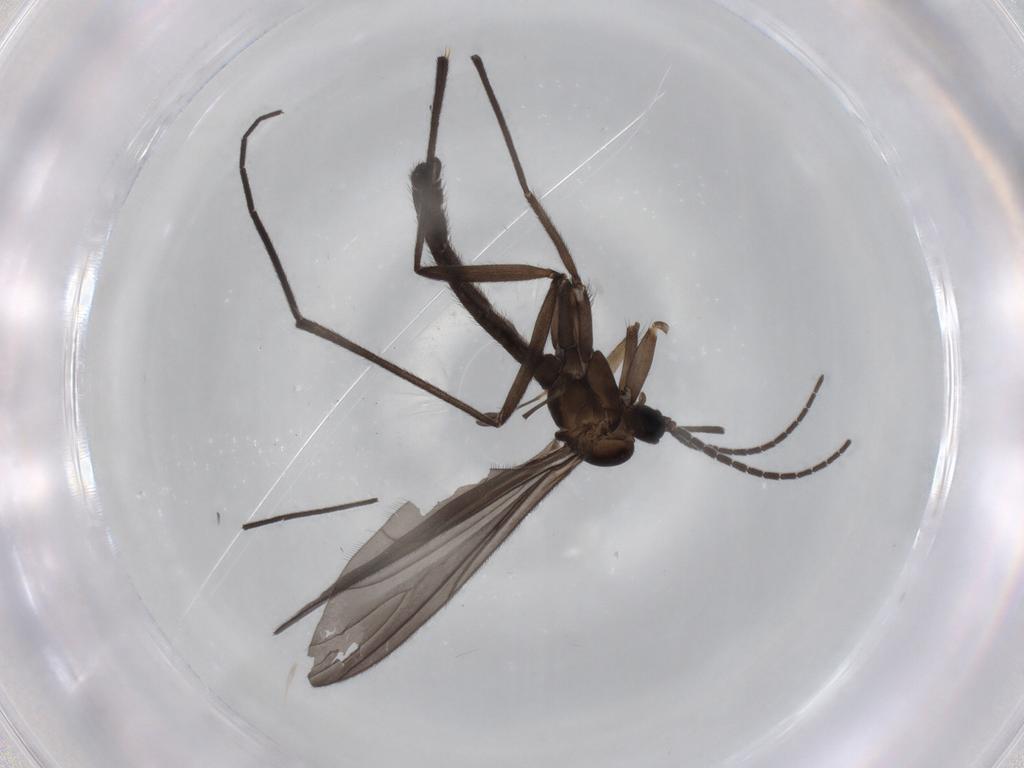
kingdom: Animalia
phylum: Arthropoda
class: Insecta
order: Diptera
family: Sciaridae
